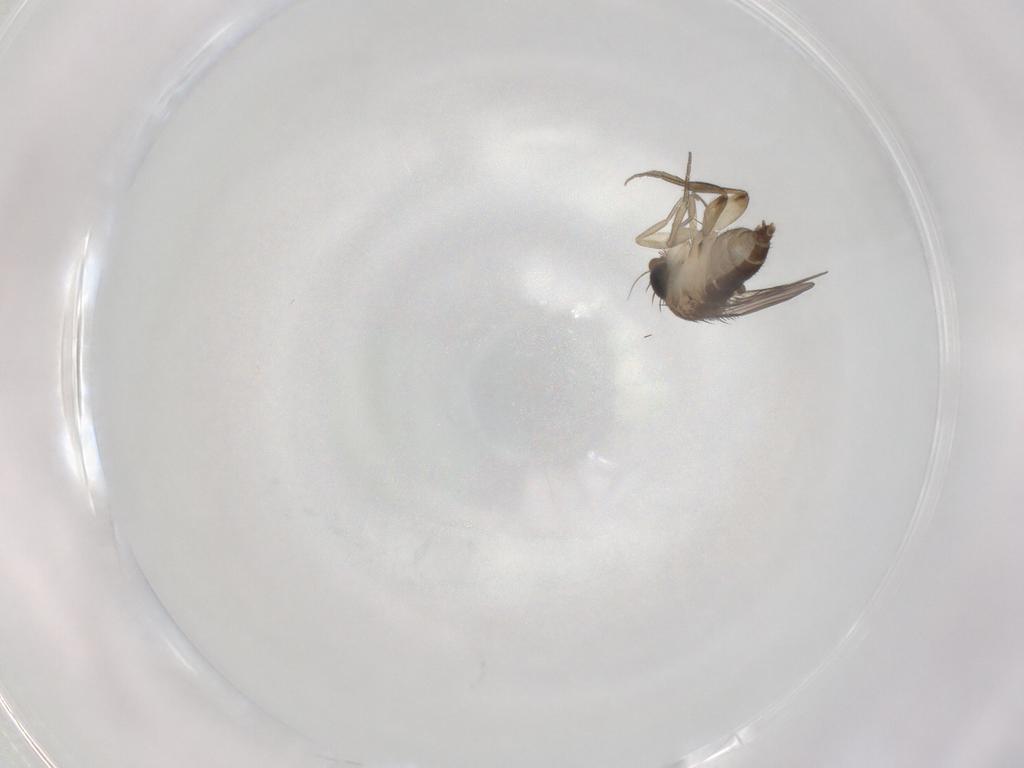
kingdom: Animalia
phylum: Arthropoda
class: Insecta
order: Diptera
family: Phoridae
